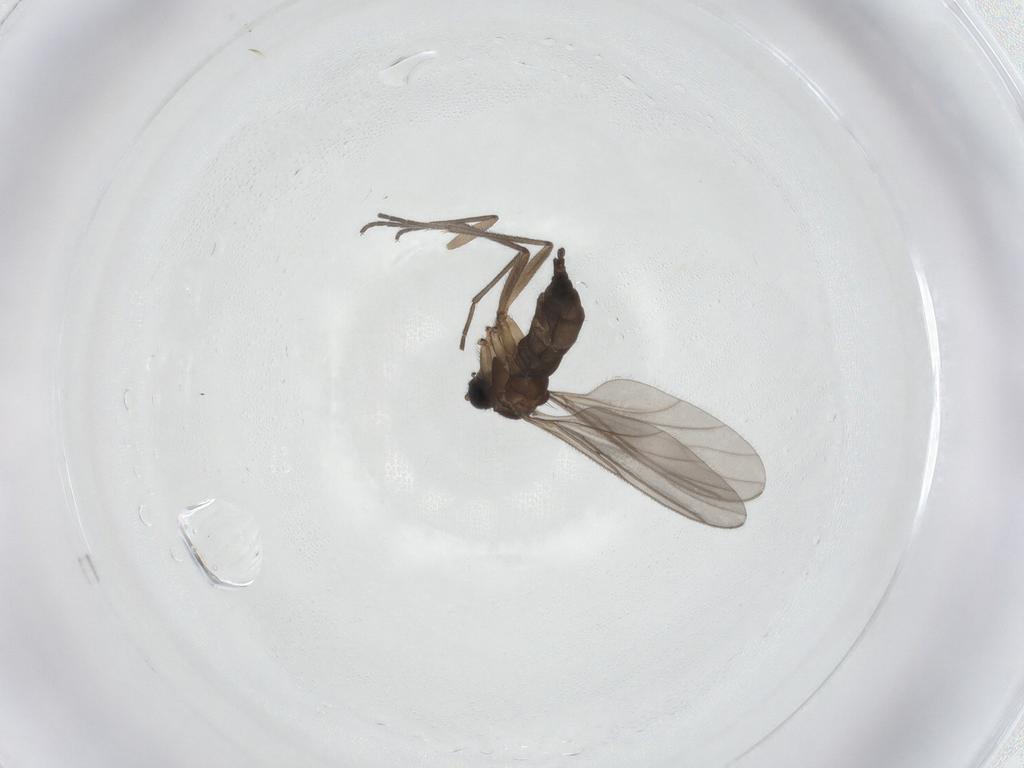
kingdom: Animalia
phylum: Arthropoda
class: Insecta
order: Diptera
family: Sciaridae
